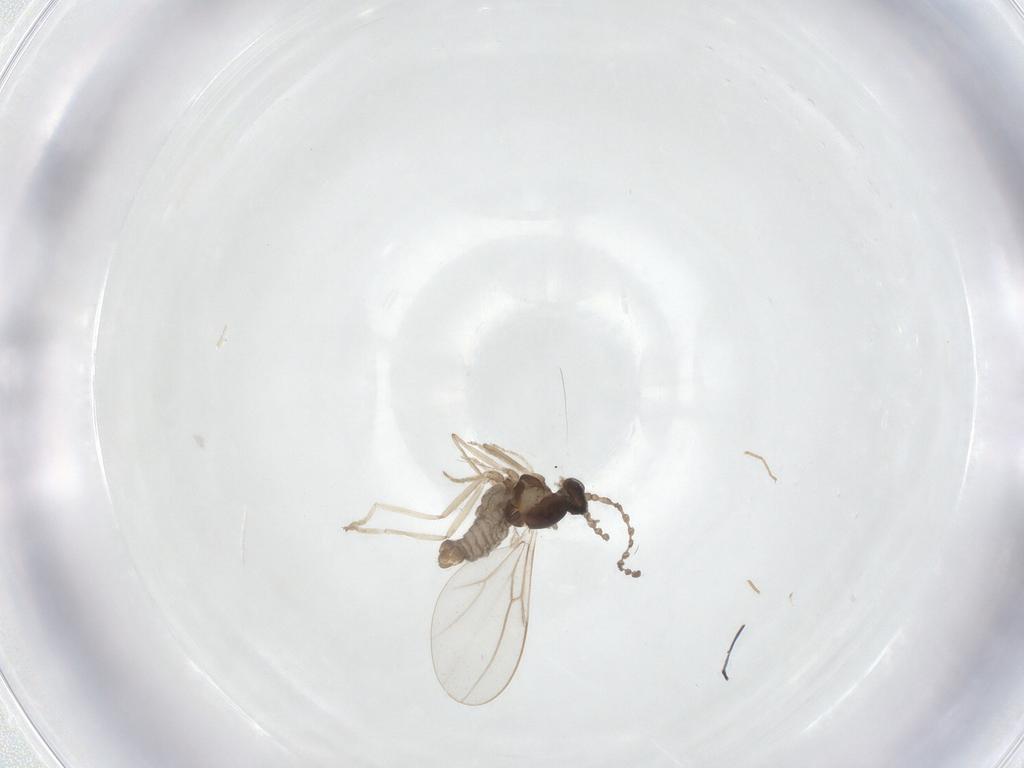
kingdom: Animalia
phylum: Arthropoda
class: Insecta
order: Diptera
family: Cecidomyiidae
